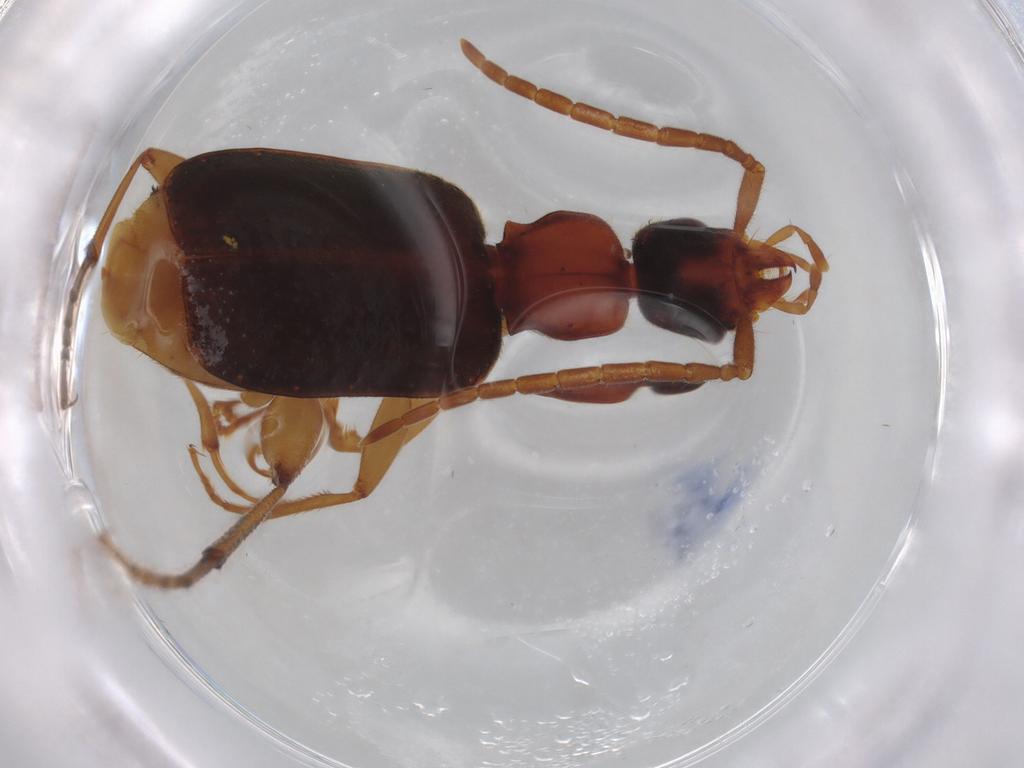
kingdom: Animalia
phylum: Arthropoda
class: Insecta
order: Coleoptera
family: Carabidae
